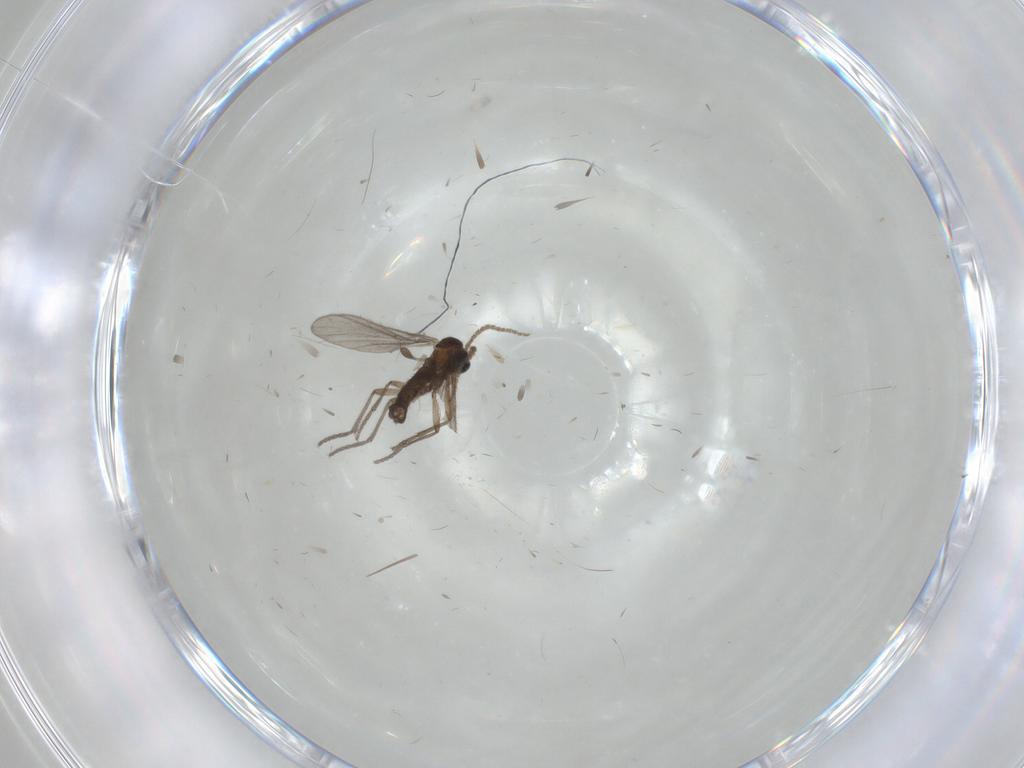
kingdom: Animalia
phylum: Arthropoda
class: Insecta
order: Diptera
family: Sciaridae
